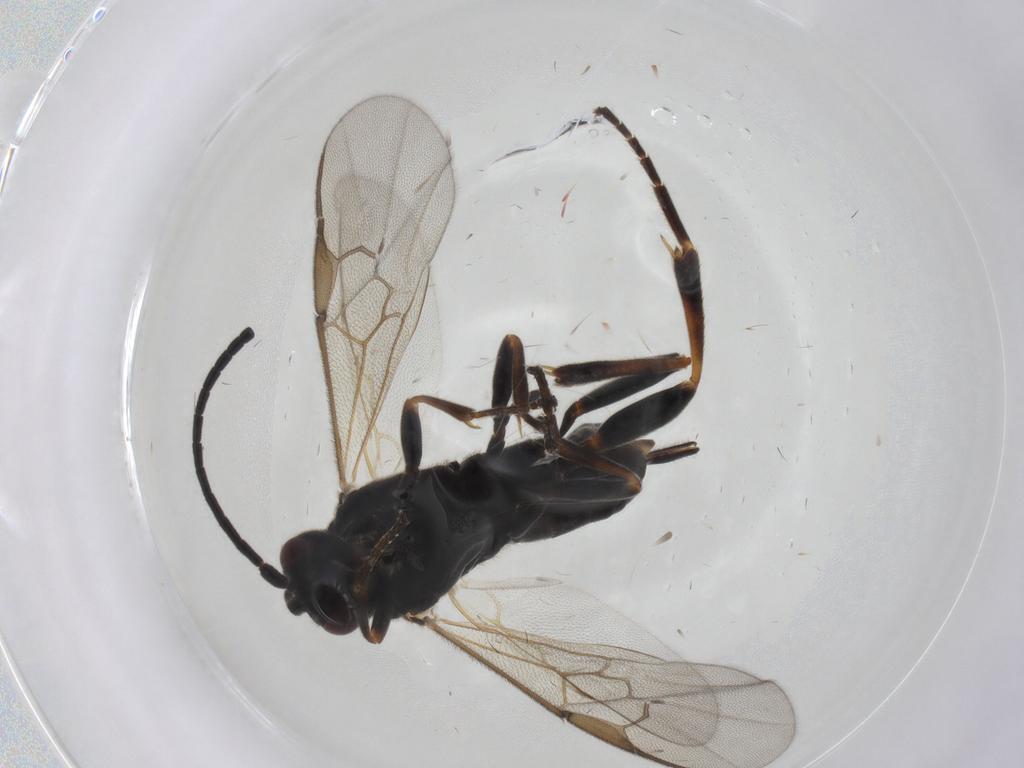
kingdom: Animalia
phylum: Arthropoda
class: Insecta
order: Hymenoptera
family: Braconidae
